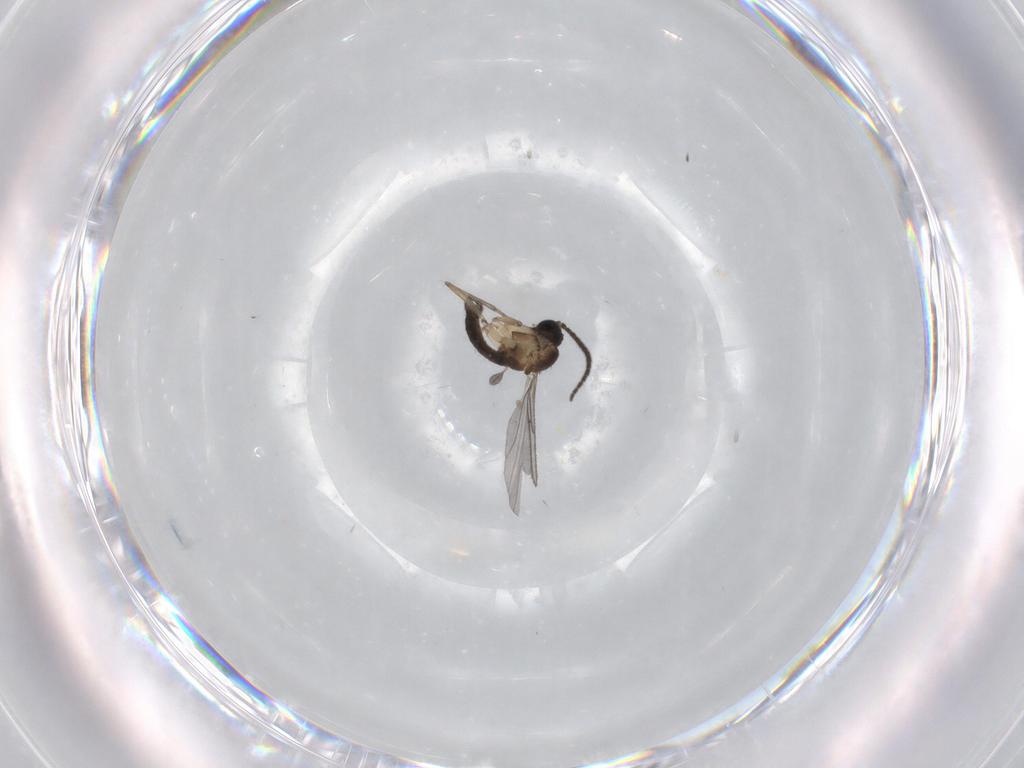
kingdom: Animalia
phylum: Arthropoda
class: Insecta
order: Diptera
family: Sciaridae
